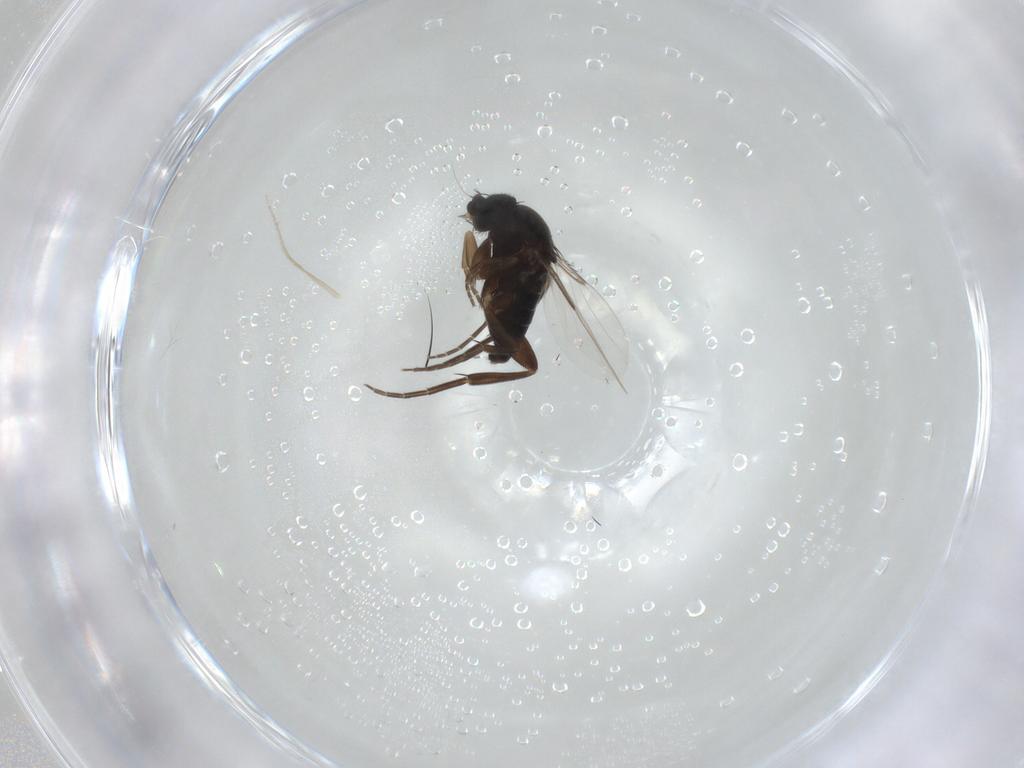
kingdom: Animalia
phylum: Arthropoda
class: Insecta
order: Diptera
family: Phoridae
